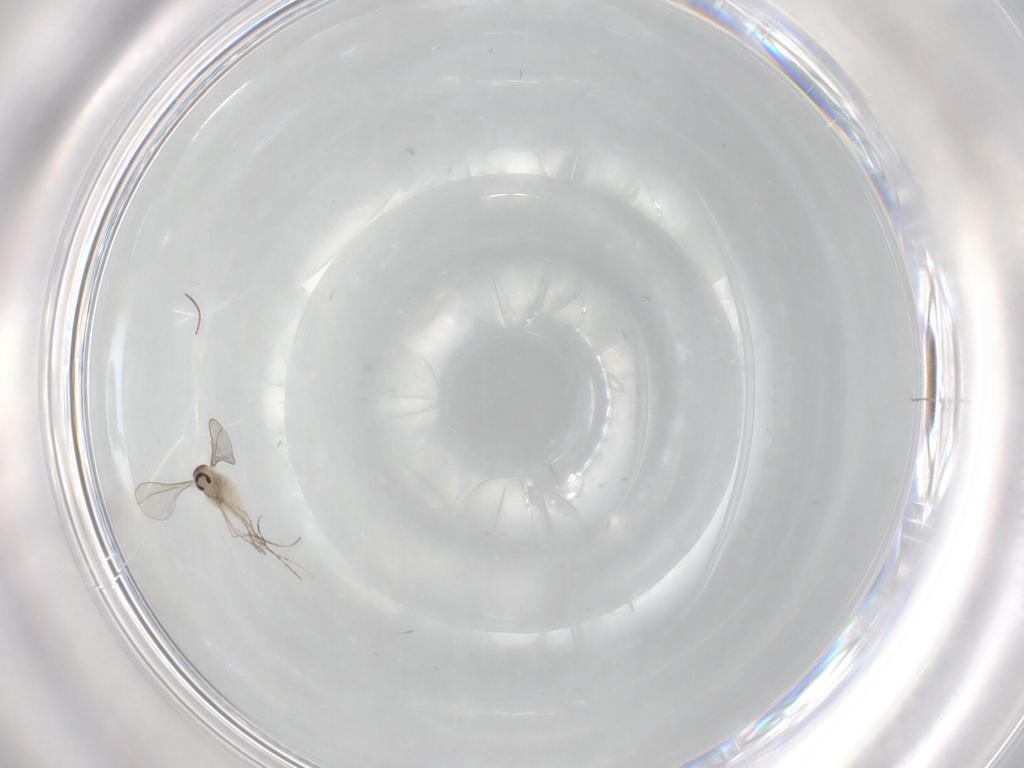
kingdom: Animalia
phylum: Arthropoda
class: Insecta
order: Diptera
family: Cecidomyiidae
